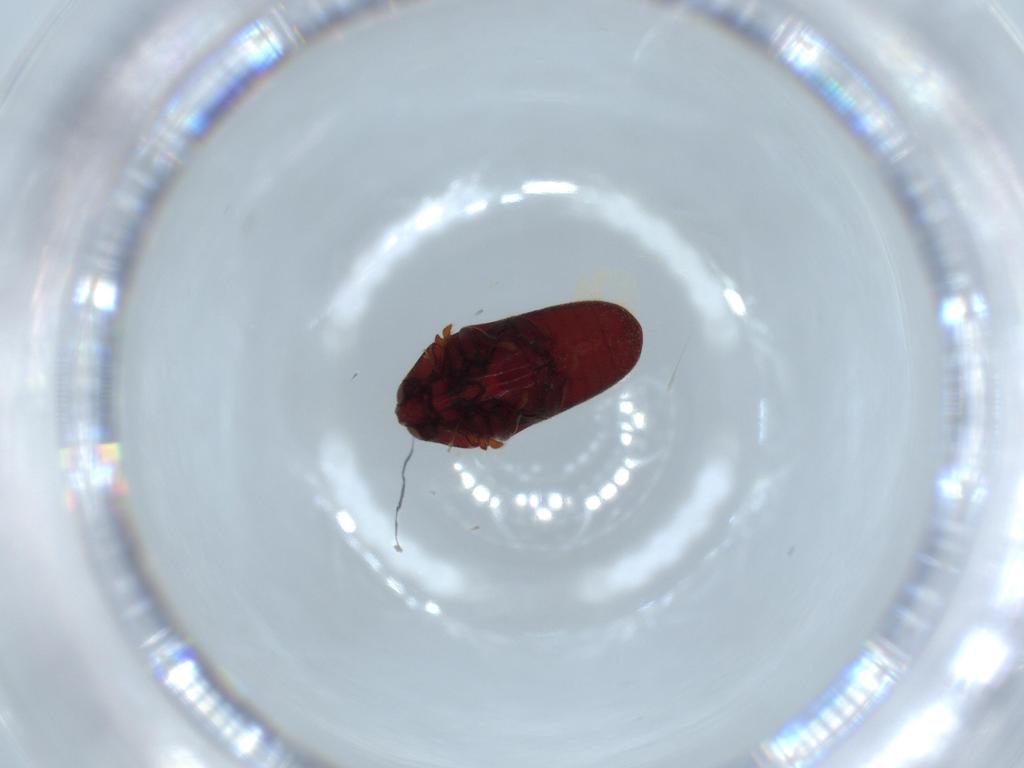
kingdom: Animalia
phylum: Arthropoda
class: Insecta
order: Coleoptera
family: Throscidae
